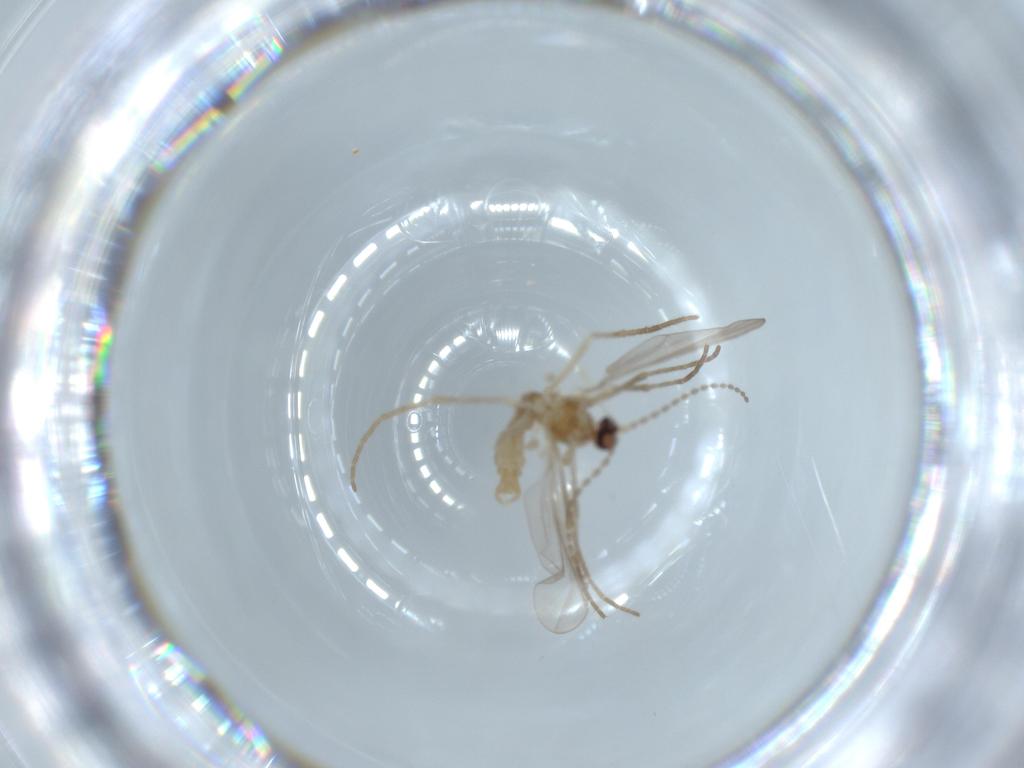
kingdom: Animalia
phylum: Arthropoda
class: Insecta
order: Diptera
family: Cecidomyiidae
